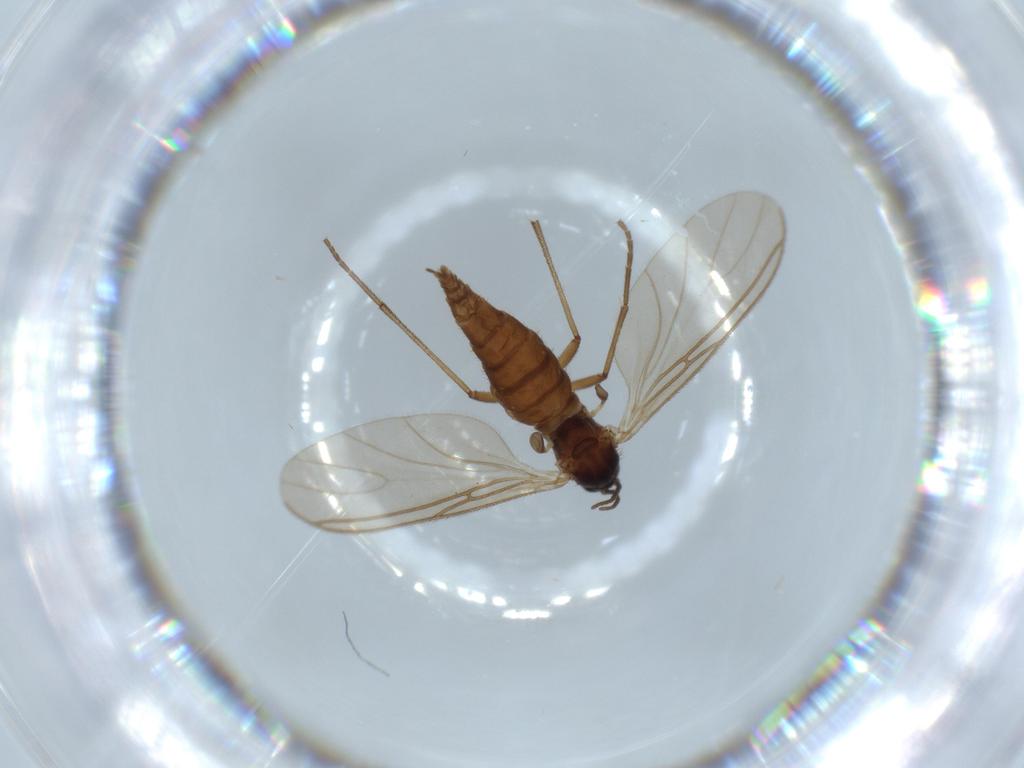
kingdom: Animalia
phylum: Arthropoda
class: Insecta
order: Diptera
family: Sciaridae
